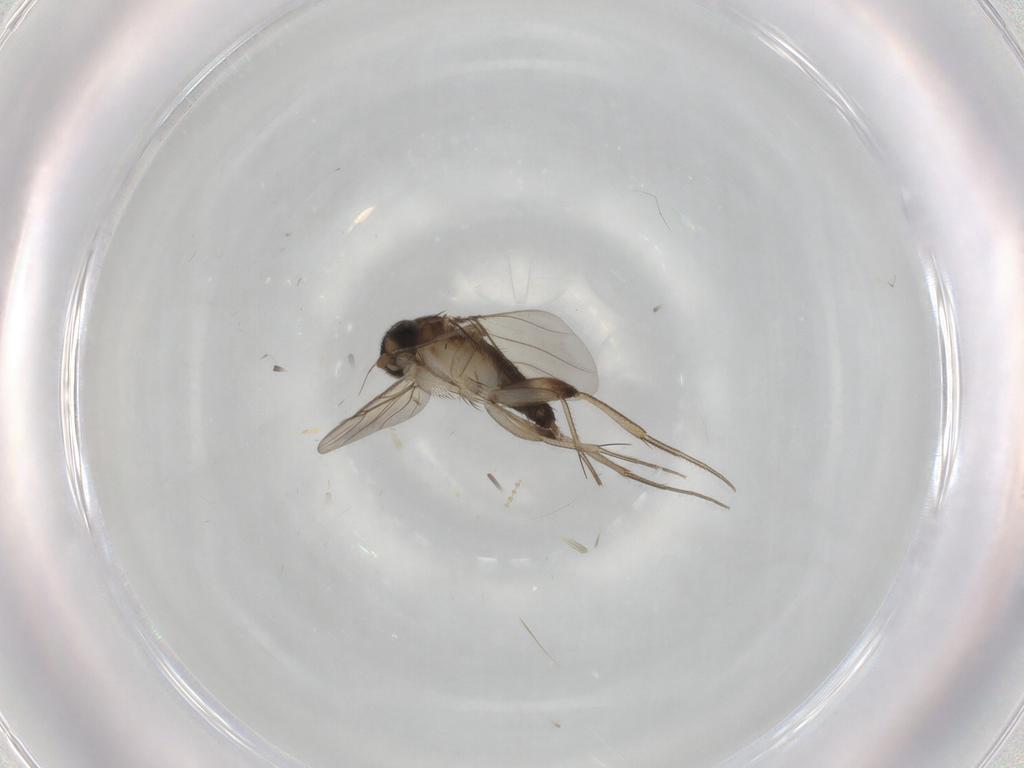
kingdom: Animalia
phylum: Arthropoda
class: Insecta
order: Diptera
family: Phoridae
